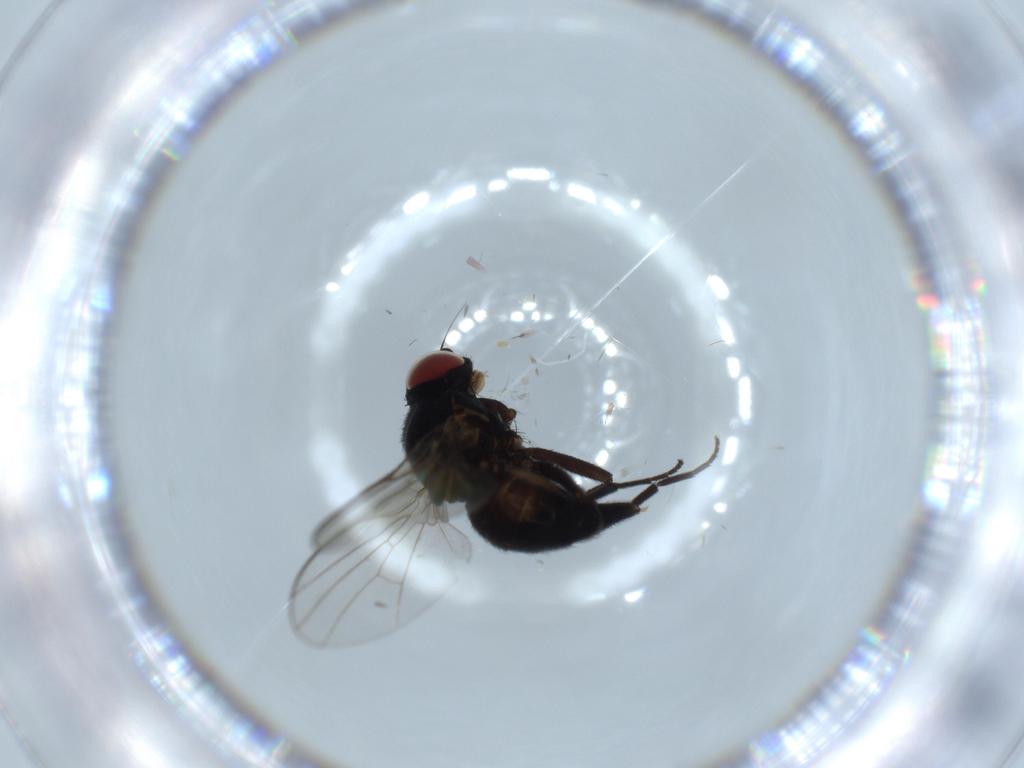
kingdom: Animalia
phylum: Arthropoda
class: Insecta
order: Diptera
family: Agromyzidae
